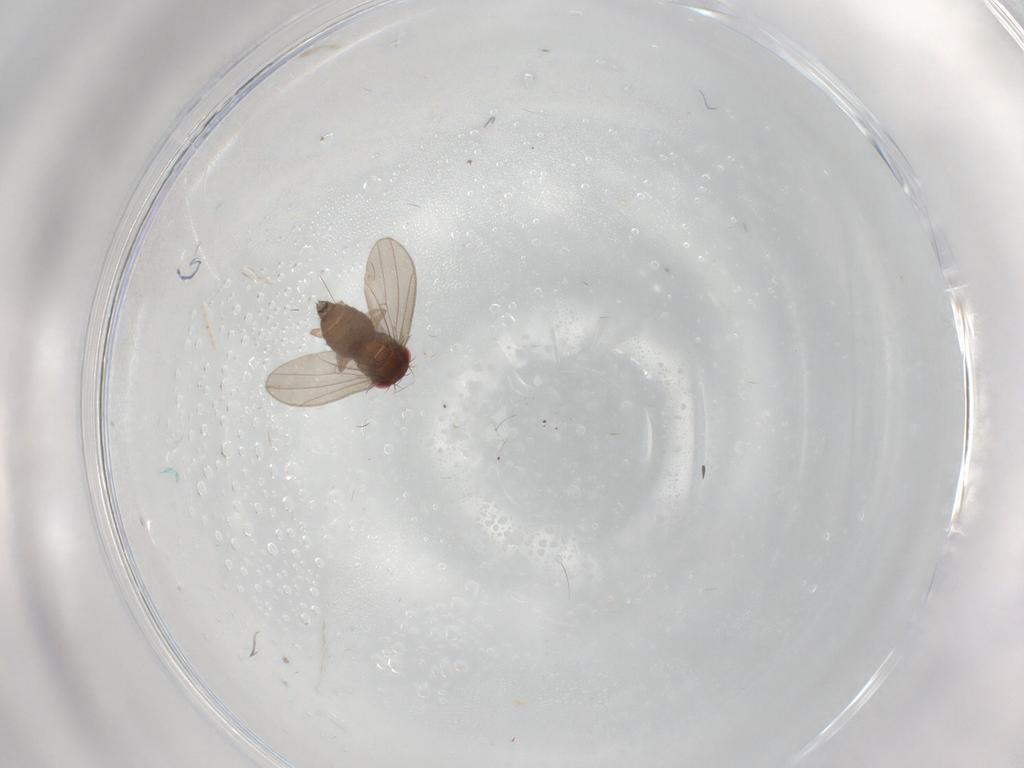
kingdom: Animalia
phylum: Arthropoda
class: Insecta
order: Diptera
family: Drosophilidae
